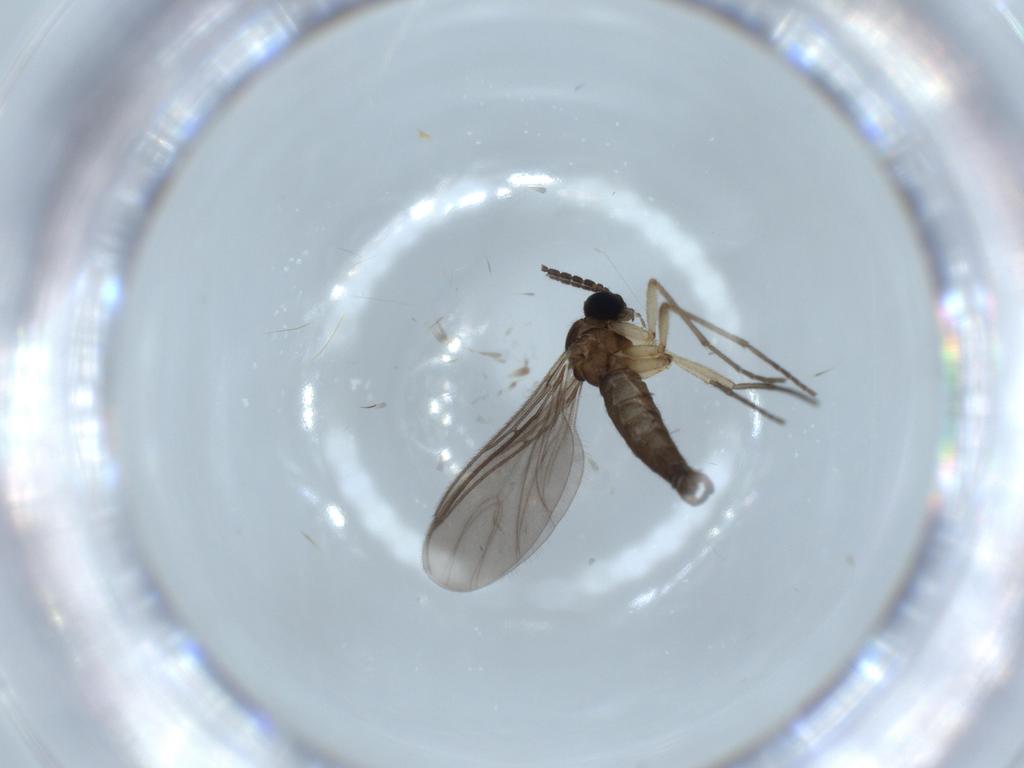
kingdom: Animalia
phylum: Arthropoda
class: Insecta
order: Diptera
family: Sciaridae
